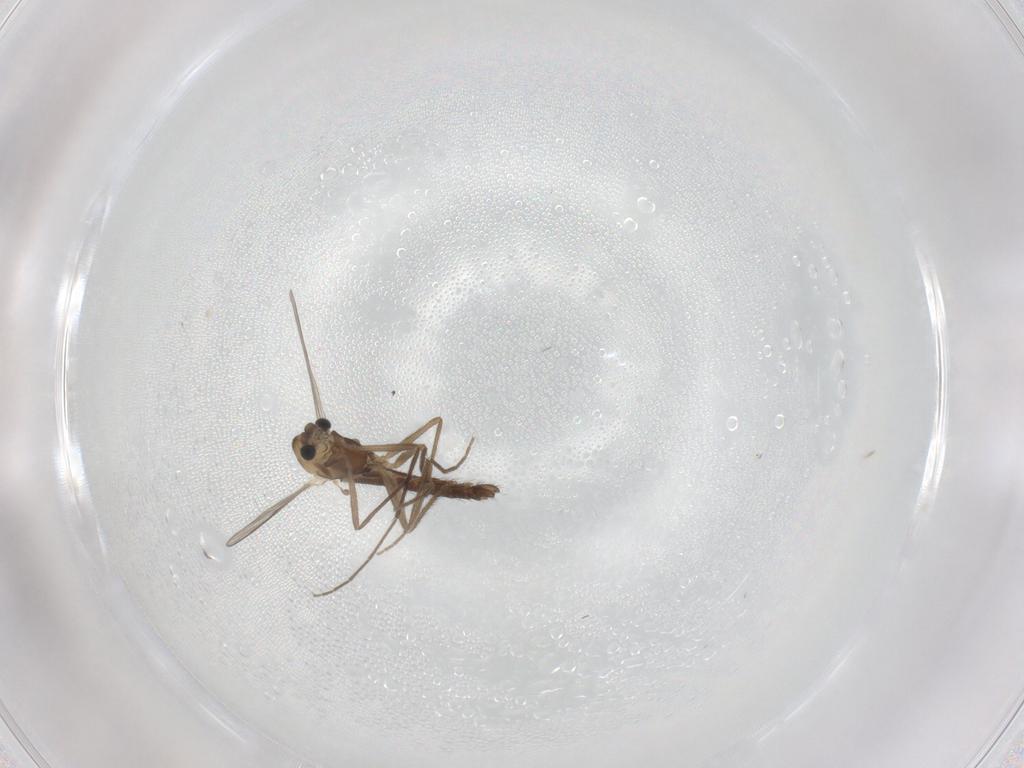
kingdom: Animalia
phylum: Arthropoda
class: Insecta
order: Diptera
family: Chironomidae
